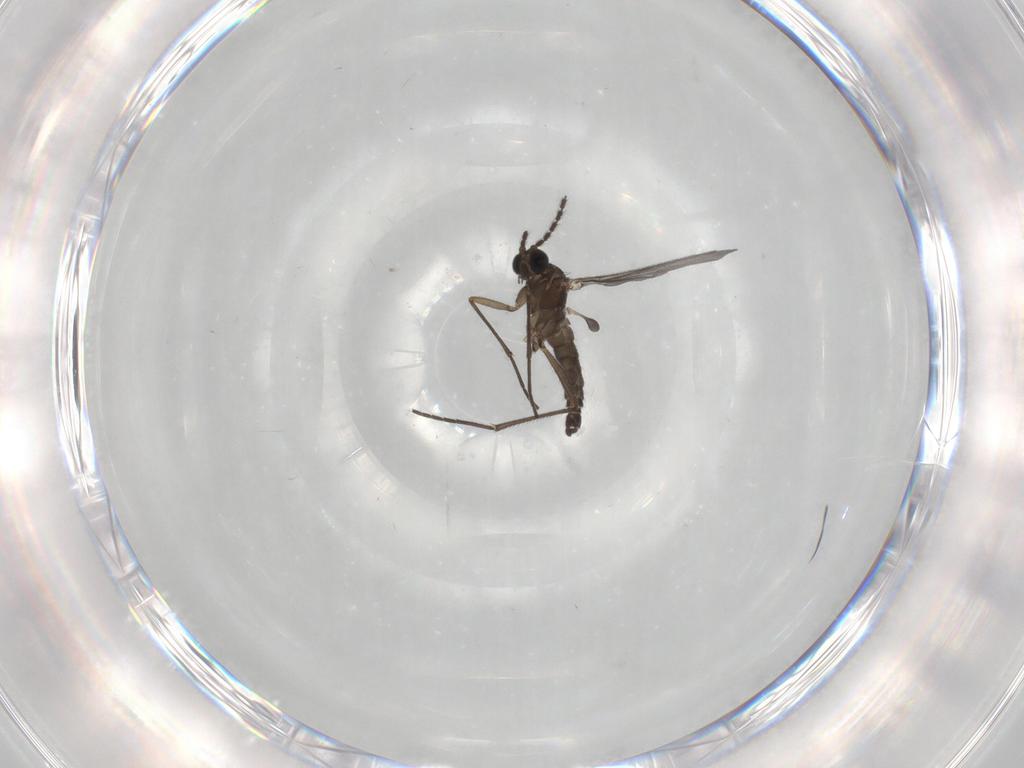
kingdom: Animalia
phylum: Arthropoda
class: Insecta
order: Diptera
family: Sciaridae
